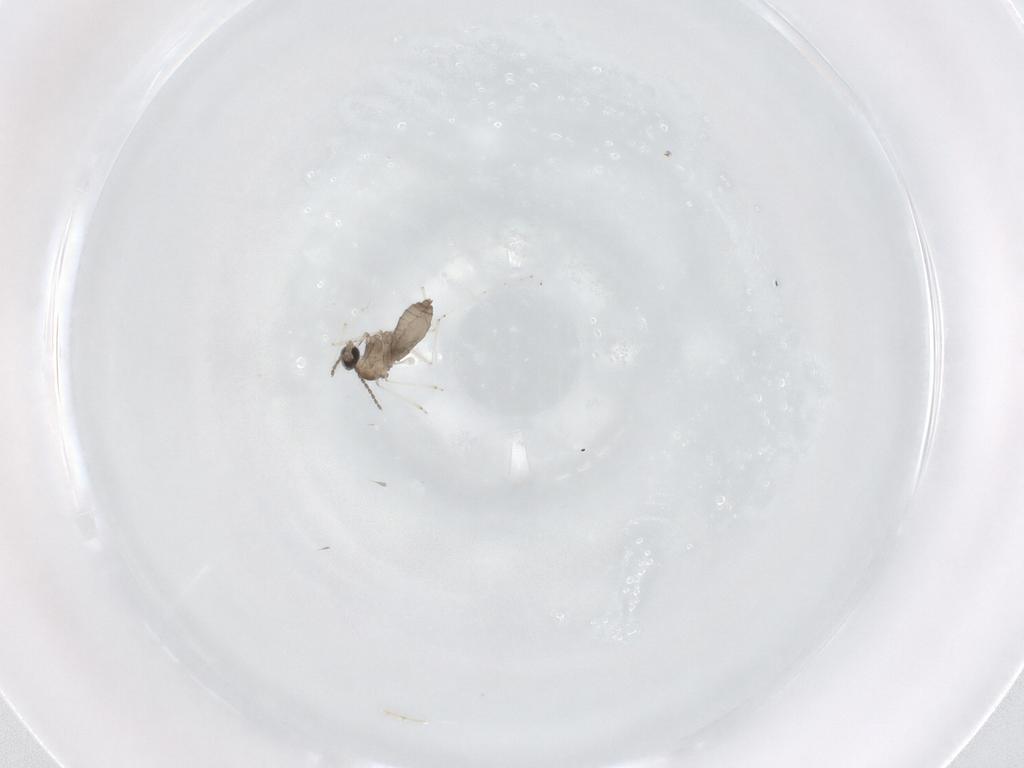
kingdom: Animalia
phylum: Arthropoda
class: Insecta
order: Diptera
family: Cecidomyiidae
